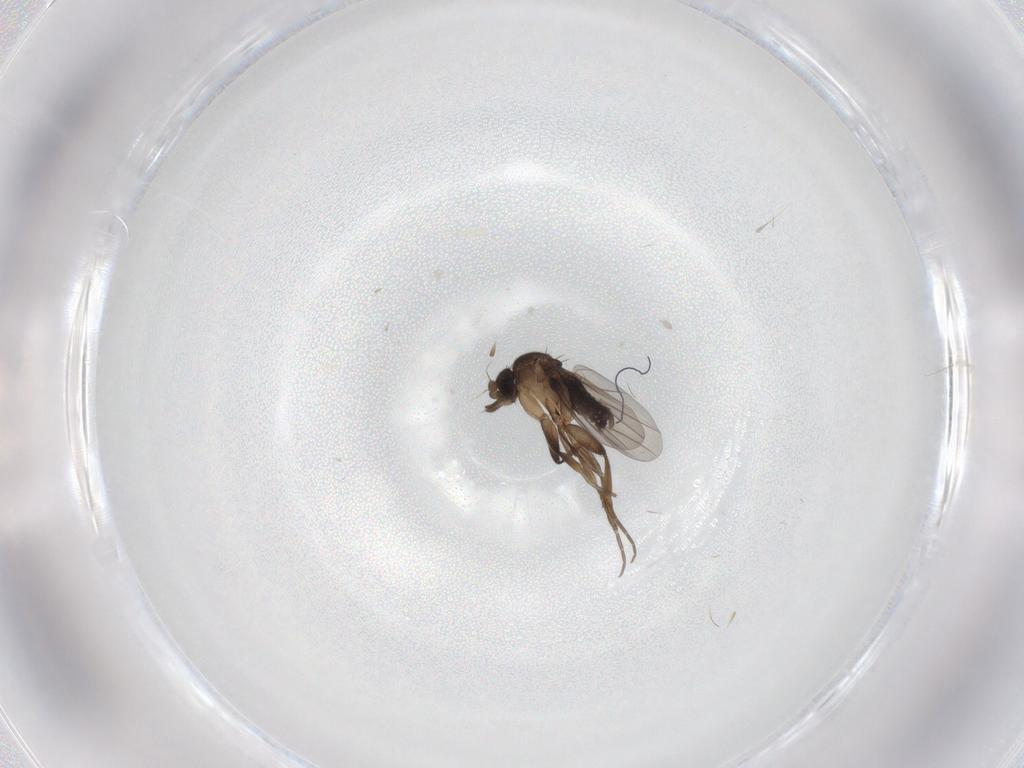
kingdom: Animalia
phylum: Arthropoda
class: Insecta
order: Diptera
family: Phoridae
